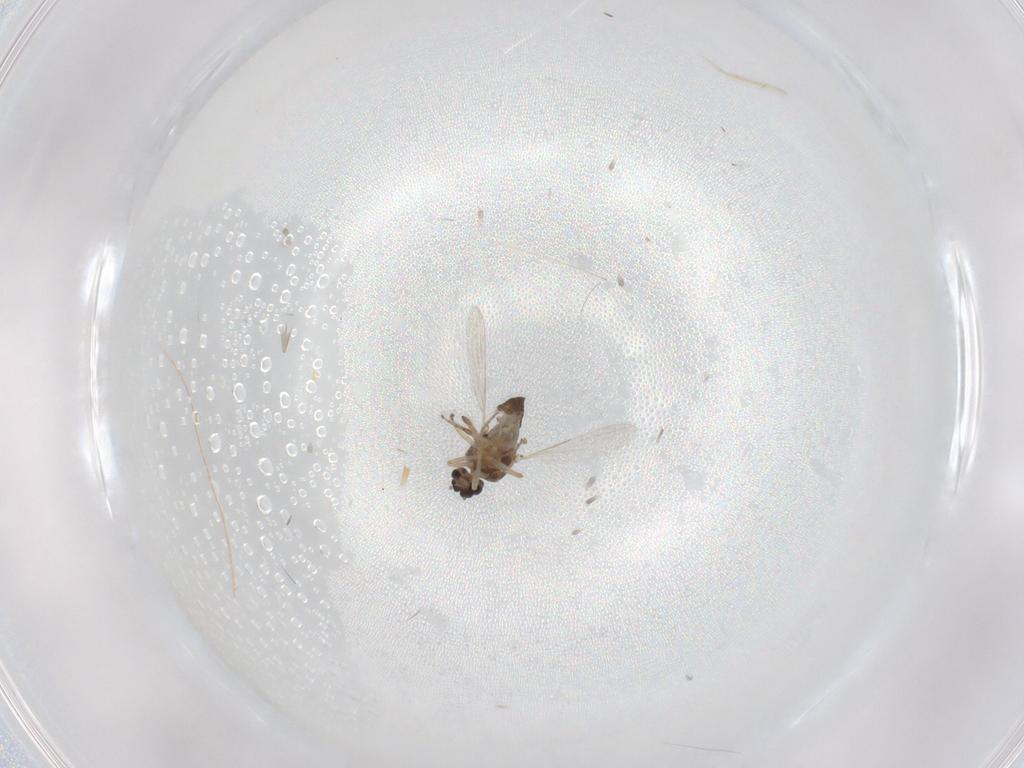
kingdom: Animalia
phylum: Arthropoda
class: Insecta
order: Diptera
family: Ceratopogonidae
